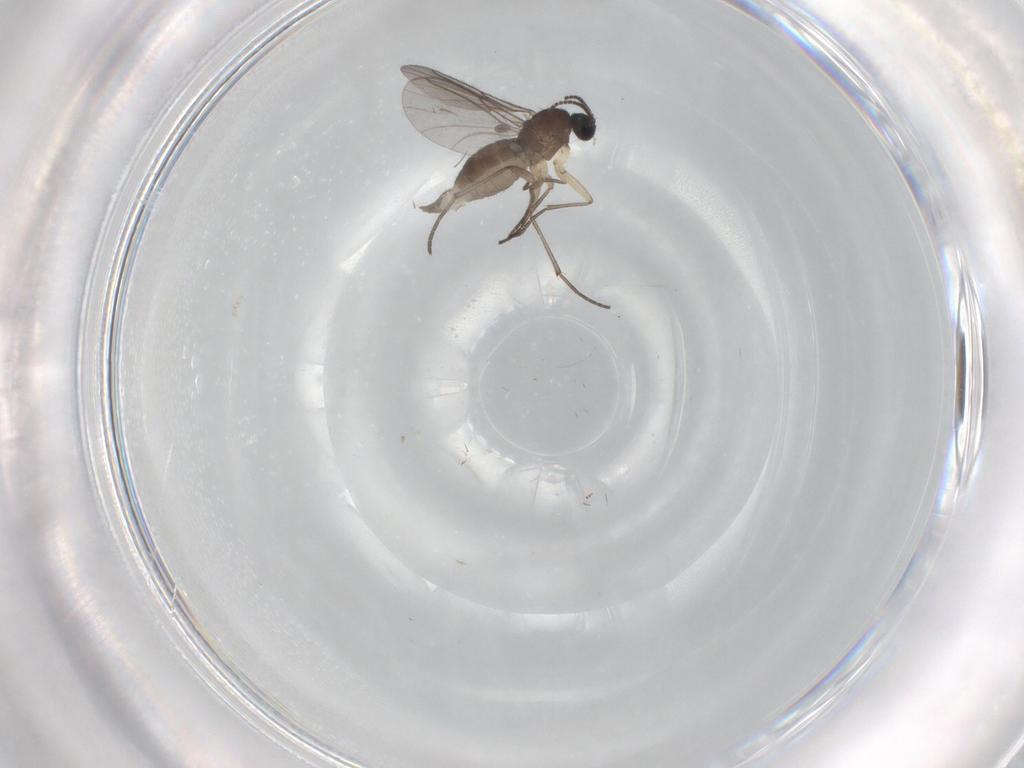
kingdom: Animalia
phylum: Arthropoda
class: Insecta
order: Diptera
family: Sciaridae
